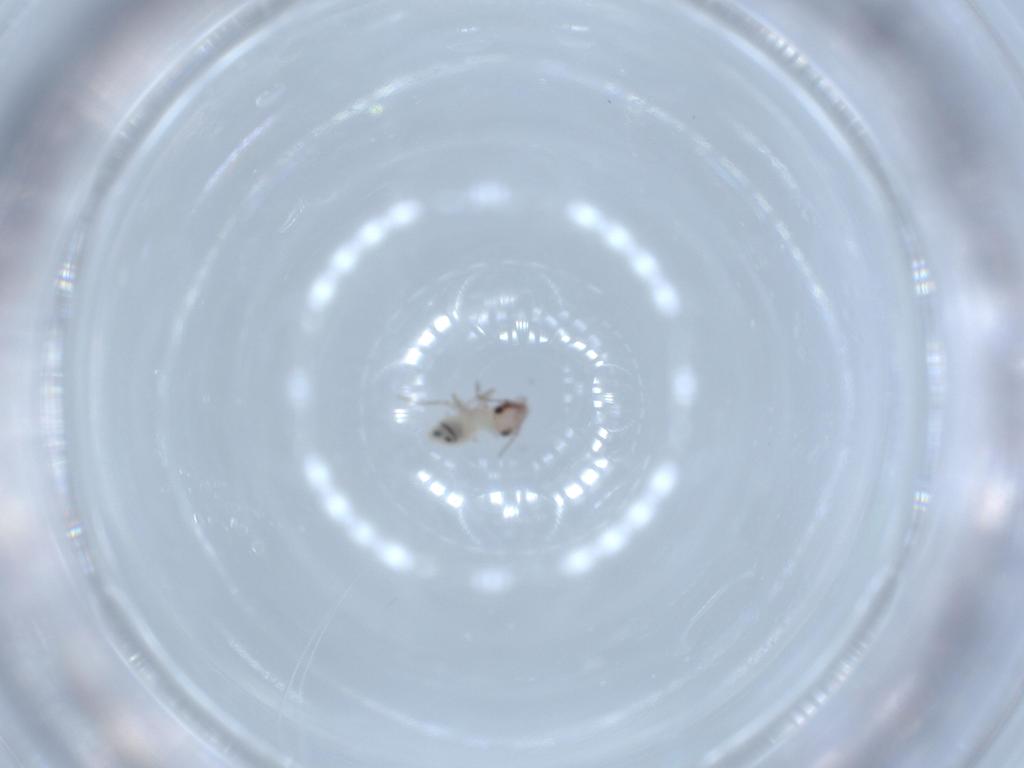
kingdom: Animalia
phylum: Arthropoda
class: Insecta
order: Psocodea
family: Lepidopsocidae
